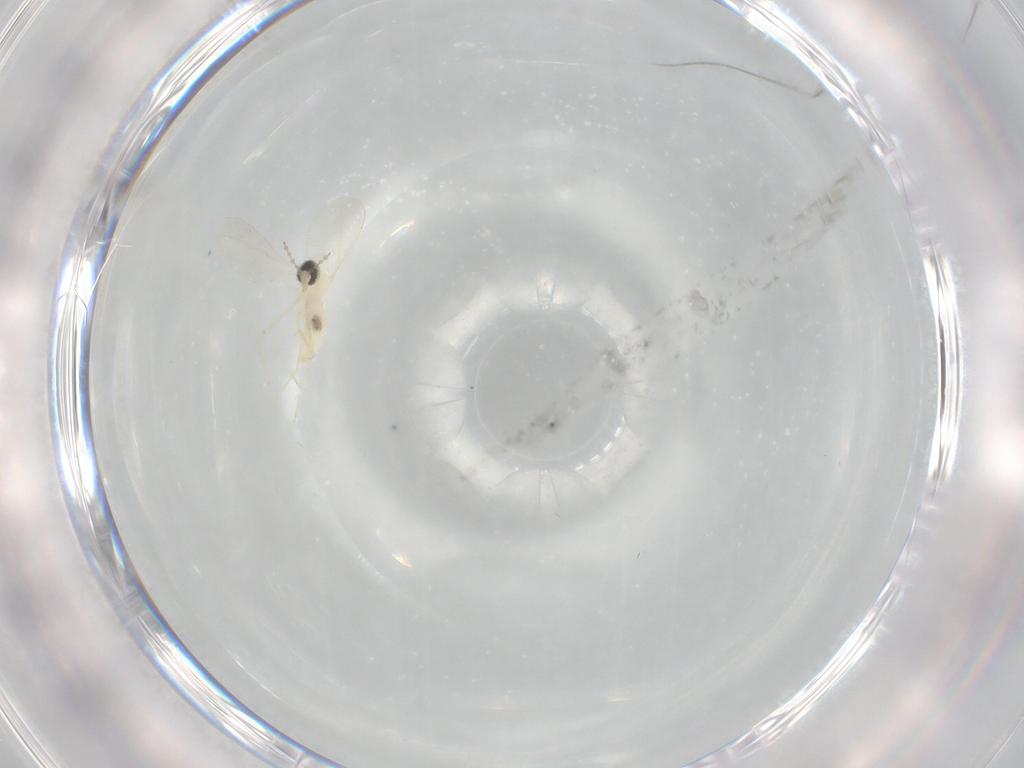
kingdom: Animalia
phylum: Arthropoda
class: Insecta
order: Diptera
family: Cecidomyiidae
